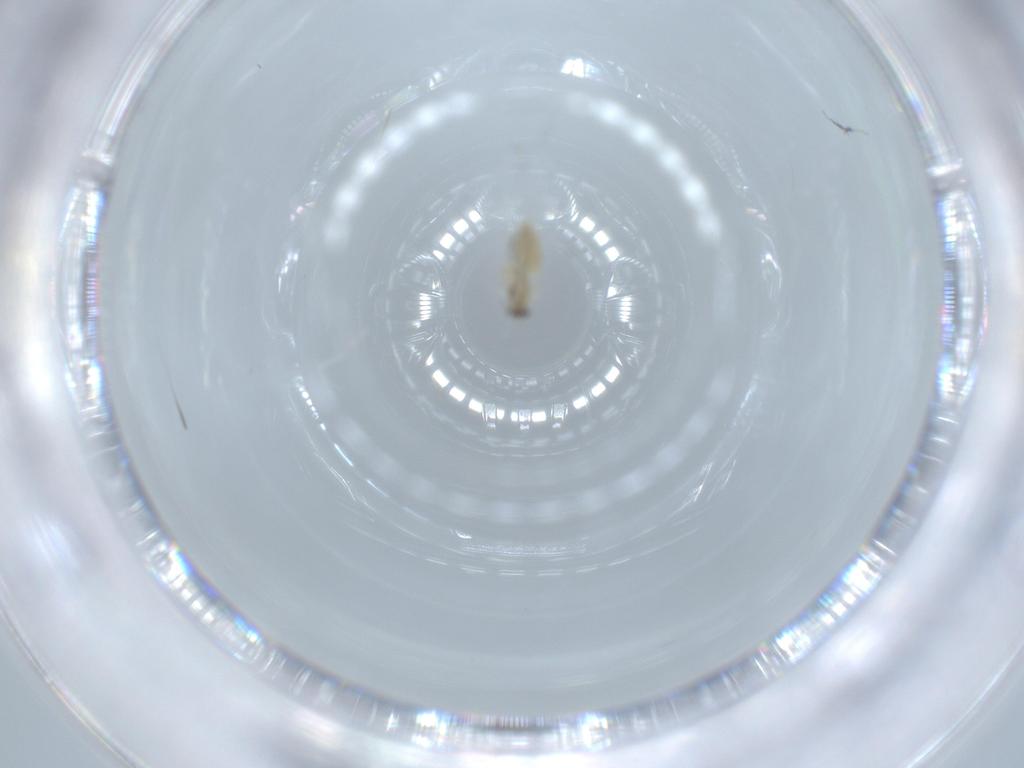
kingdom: Animalia
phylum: Arthropoda
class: Insecta
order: Diptera
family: Cecidomyiidae
